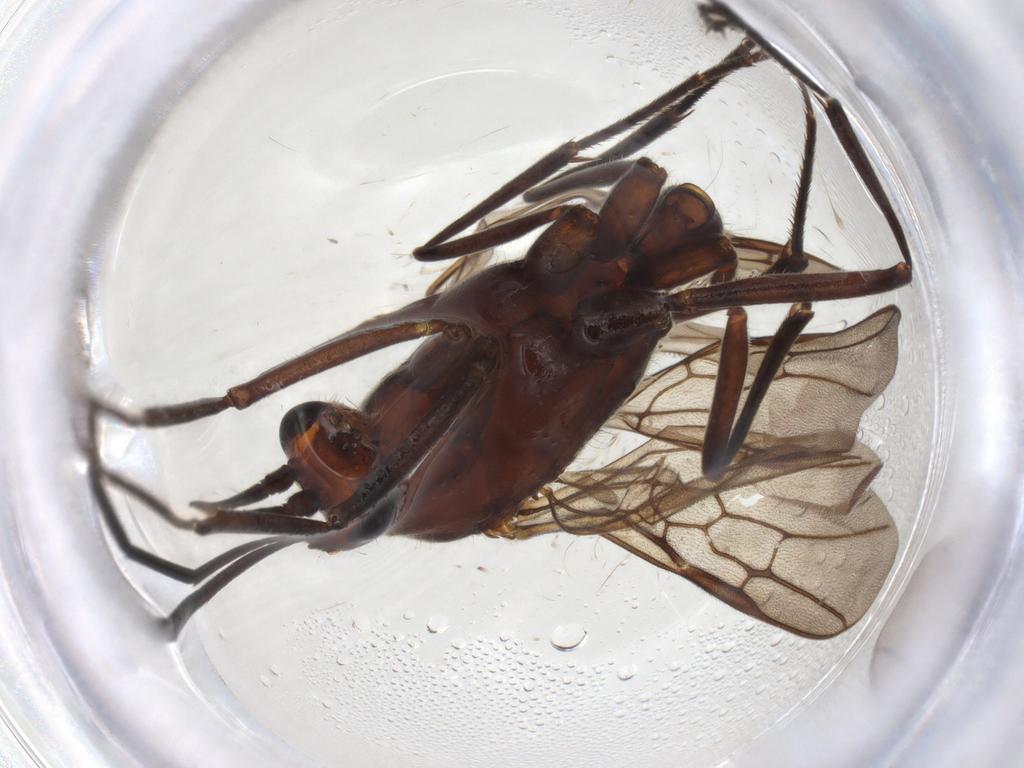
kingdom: Animalia
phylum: Arthropoda
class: Insecta
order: Hymenoptera
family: Formicidae
